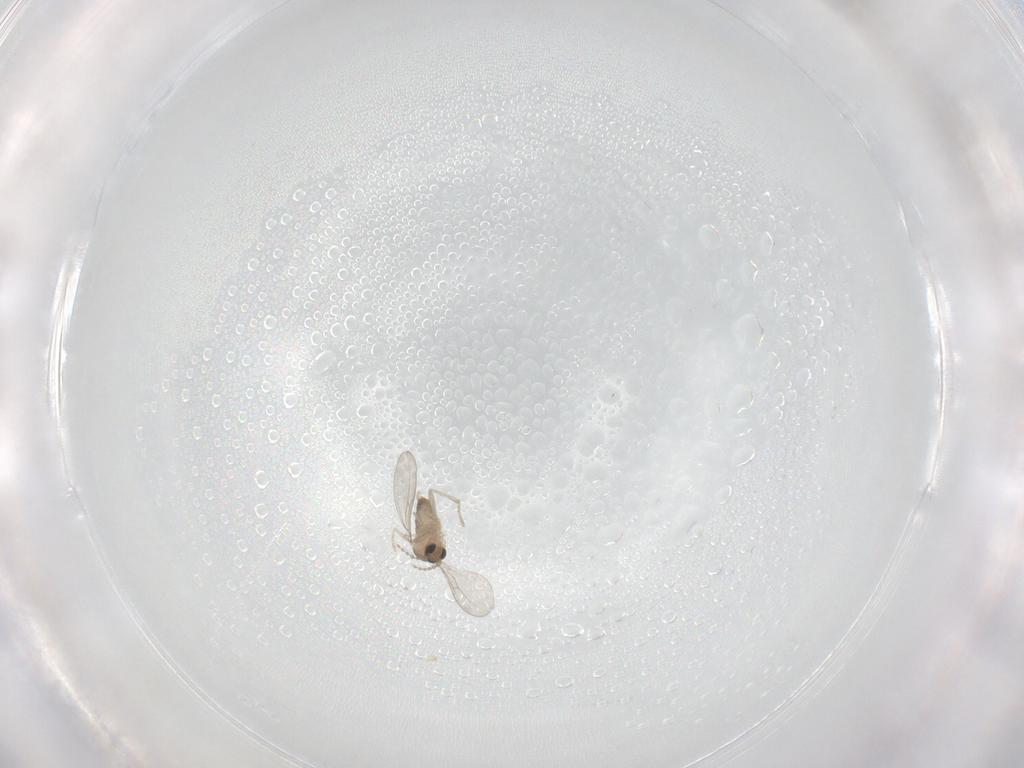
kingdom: Animalia
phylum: Arthropoda
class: Insecta
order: Diptera
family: Cecidomyiidae
